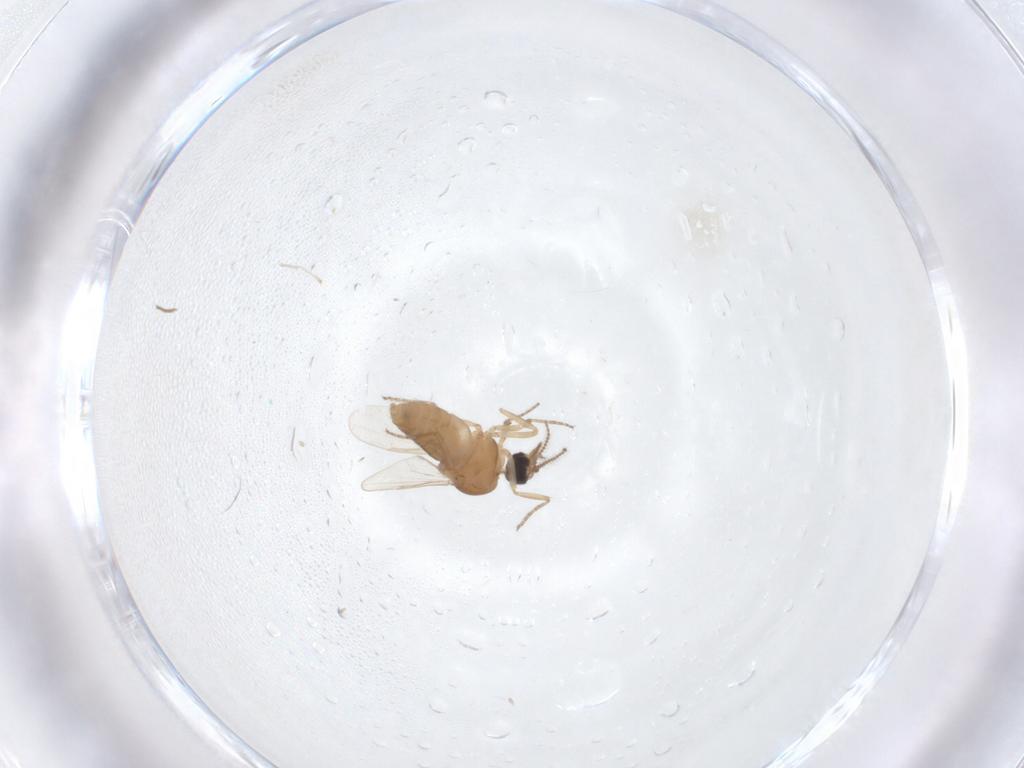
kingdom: Animalia
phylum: Arthropoda
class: Insecta
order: Diptera
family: Ceratopogonidae
